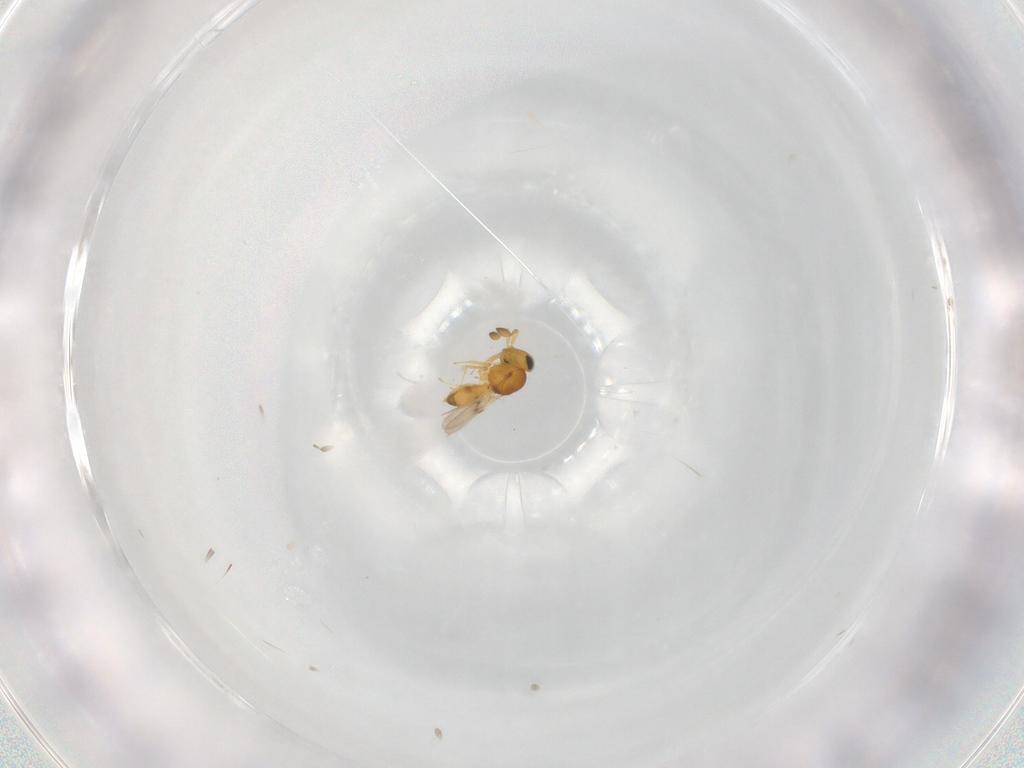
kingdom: Animalia
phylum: Arthropoda
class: Insecta
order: Hymenoptera
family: Scelionidae
